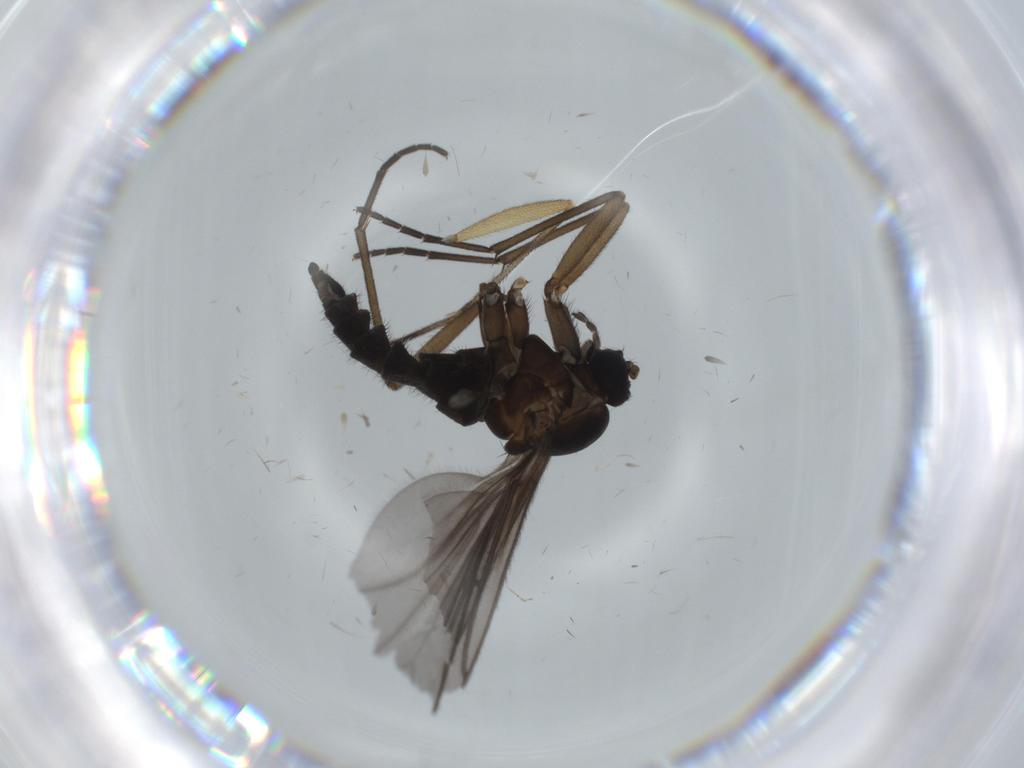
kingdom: Animalia
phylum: Arthropoda
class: Insecta
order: Diptera
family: Sciaridae
